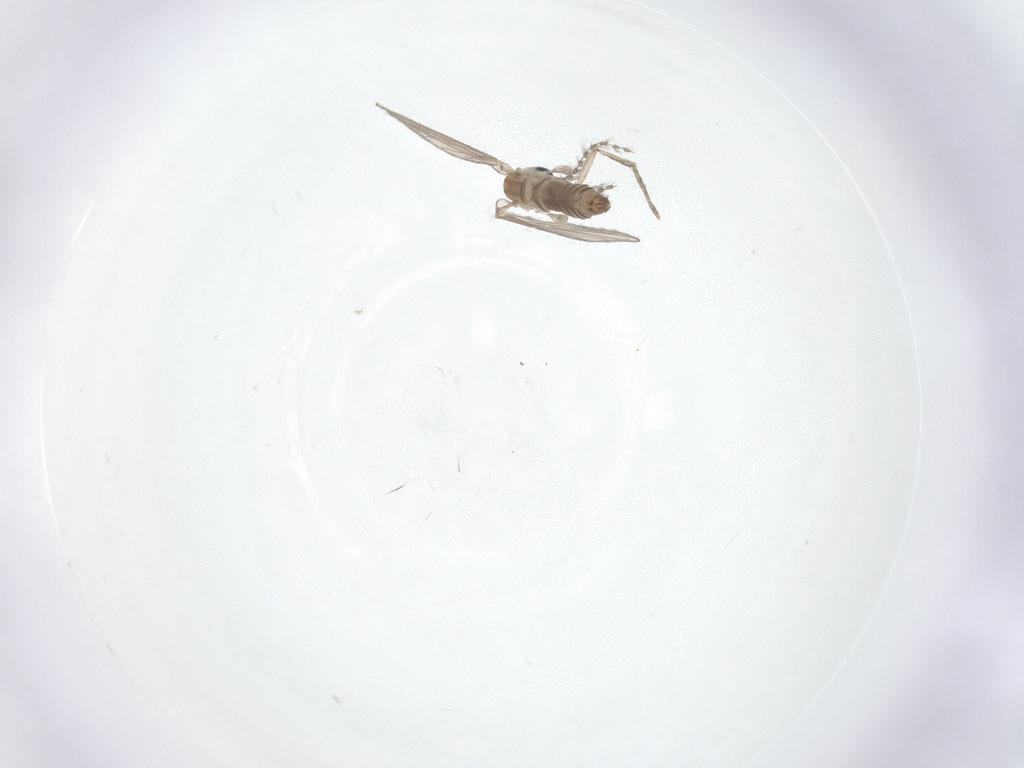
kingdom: Animalia
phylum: Arthropoda
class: Insecta
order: Diptera
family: Psychodidae
